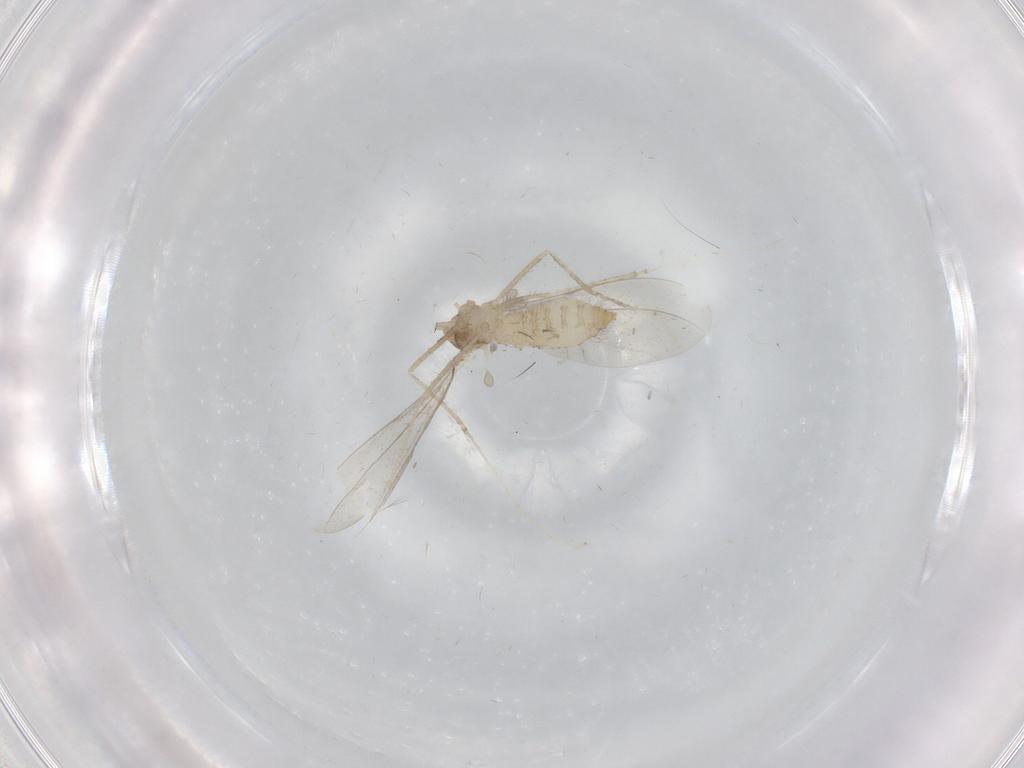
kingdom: Animalia
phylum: Arthropoda
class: Insecta
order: Diptera
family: Cecidomyiidae
